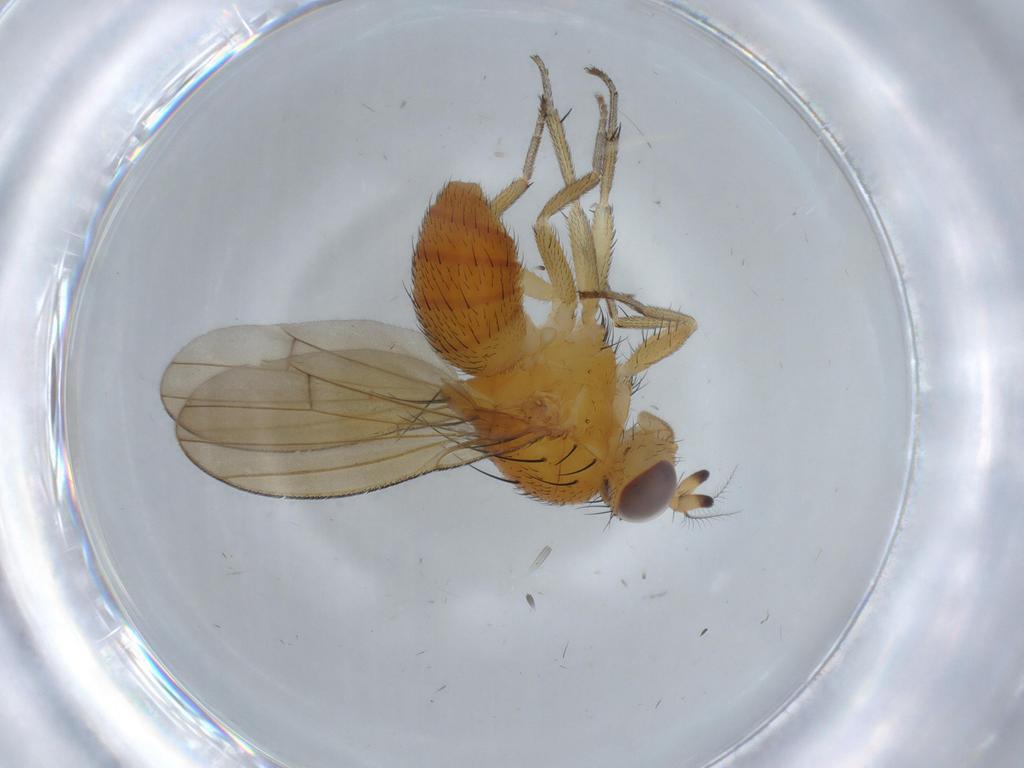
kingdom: Animalia
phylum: Arthropoda
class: Insecta
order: Diptera
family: Lauxaniidae
